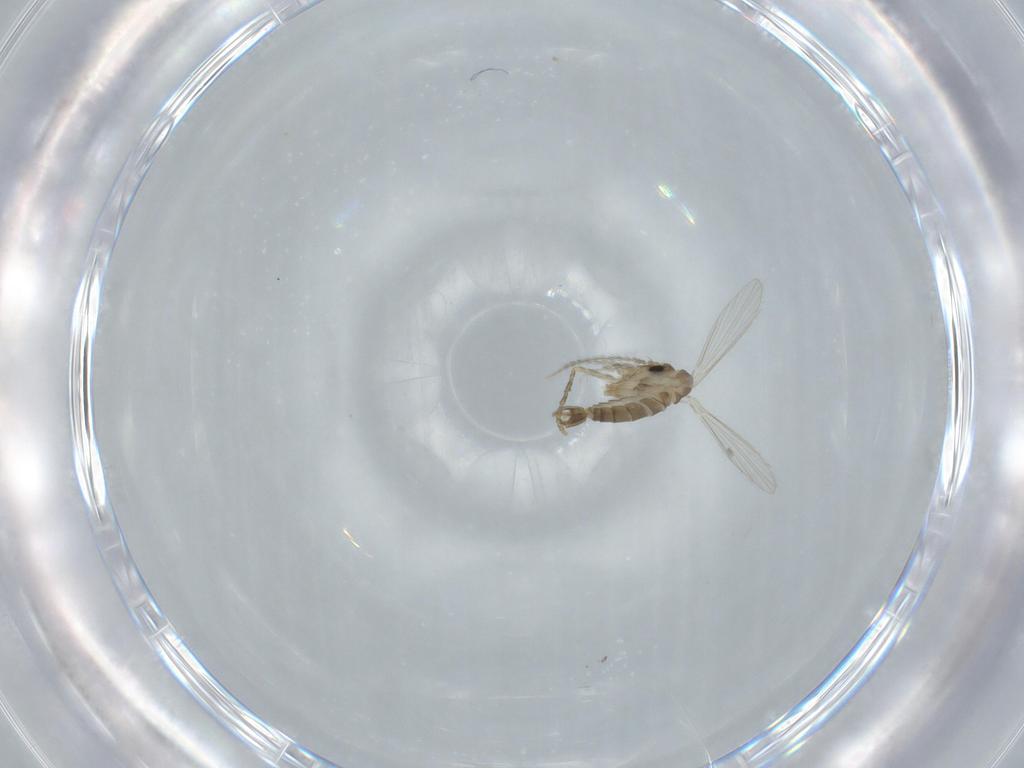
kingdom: Animalia
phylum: Arthropoda
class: Insecta
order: Diptera
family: Psychodidae
